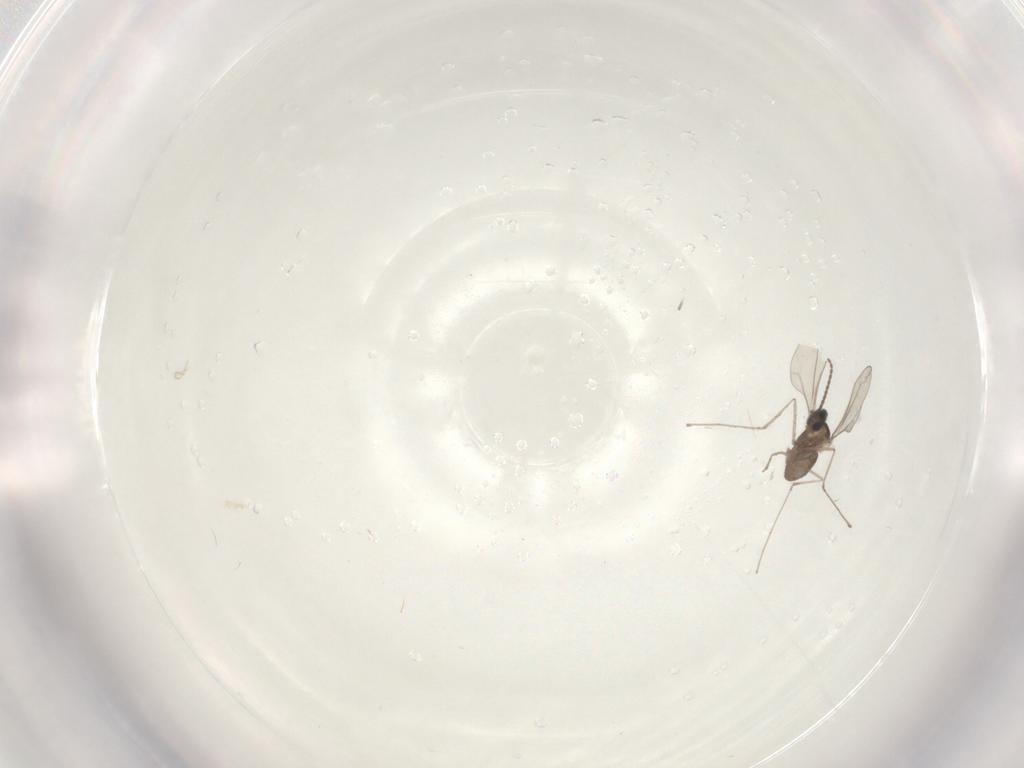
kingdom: Animalia
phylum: Arthropoda
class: Insecta
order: Diptera
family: Cecidomyiidae
